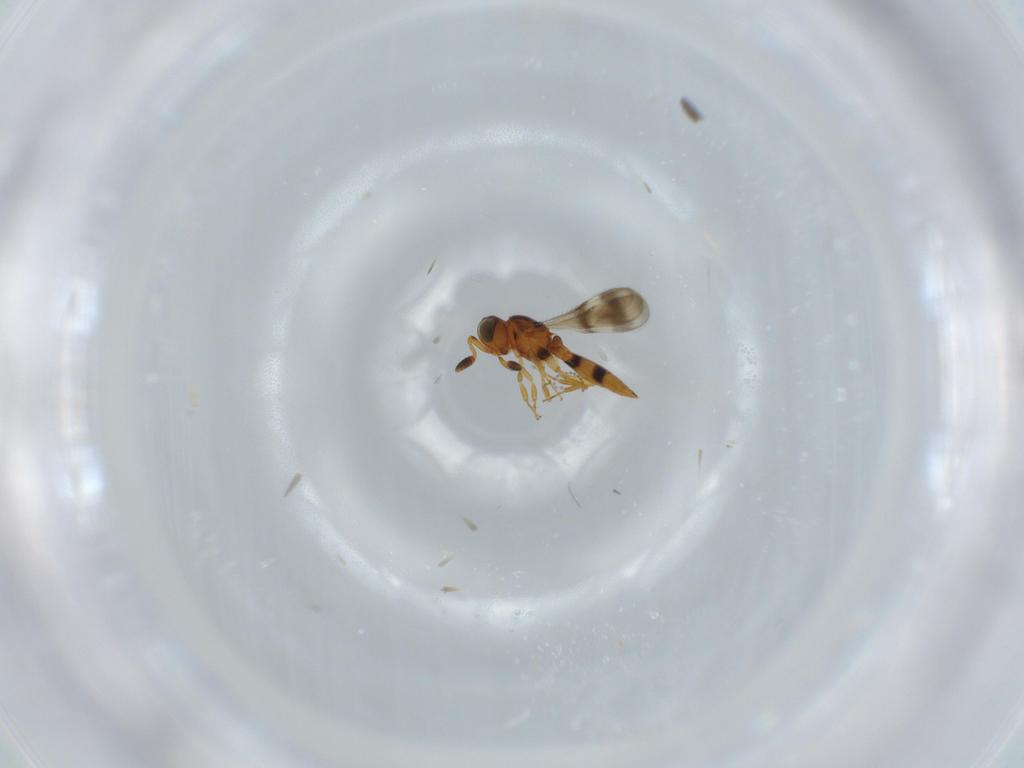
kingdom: Animalia
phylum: Arthropoda
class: Insecta
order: Hymenoptera
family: Scelionidae
